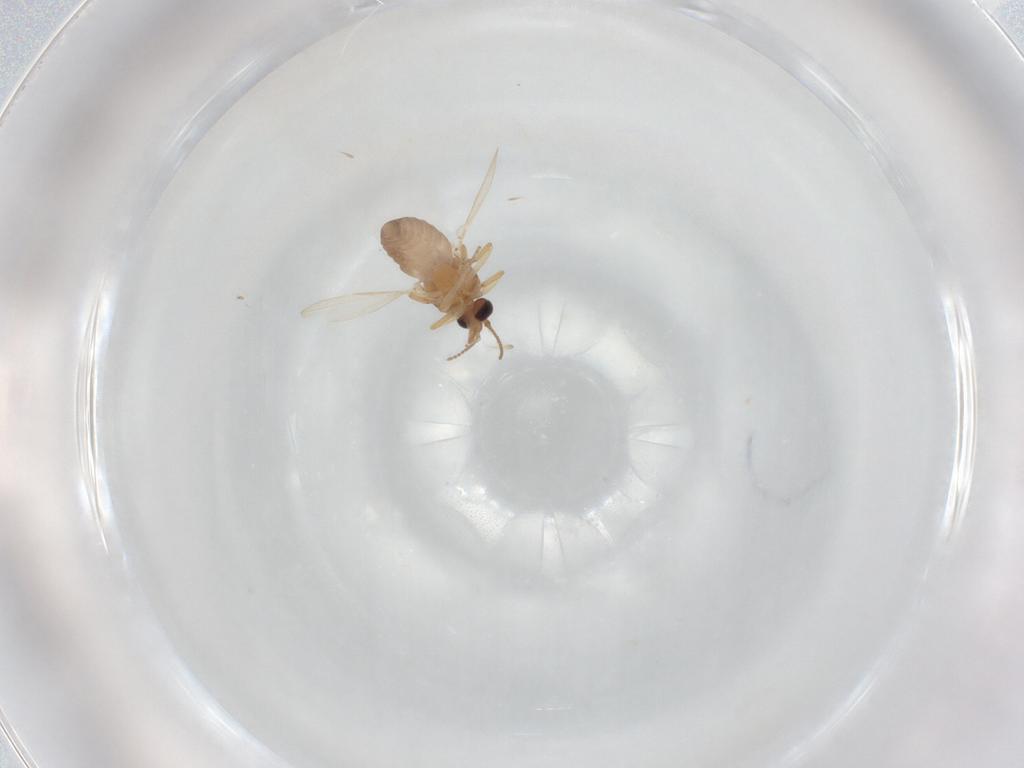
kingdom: Animalia
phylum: Arthropoda
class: Insecta
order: Diptera
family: Ceratopogonidae
